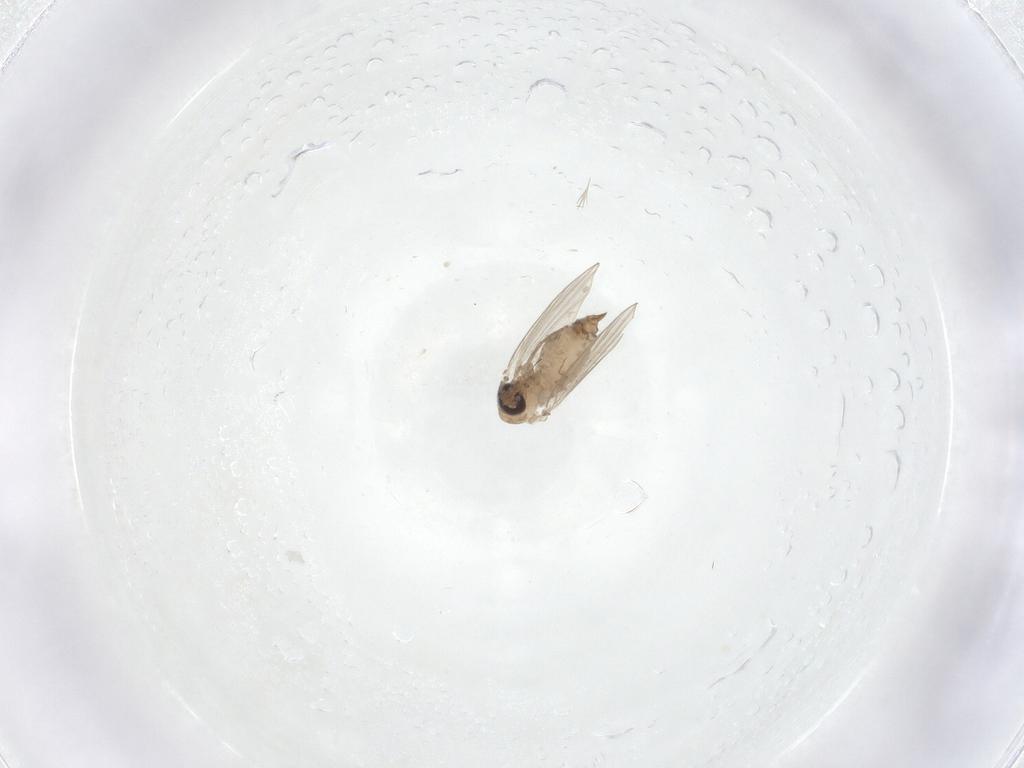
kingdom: Animalia
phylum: Arthropoda
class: Insecta
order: Diptera
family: Psychodidae
